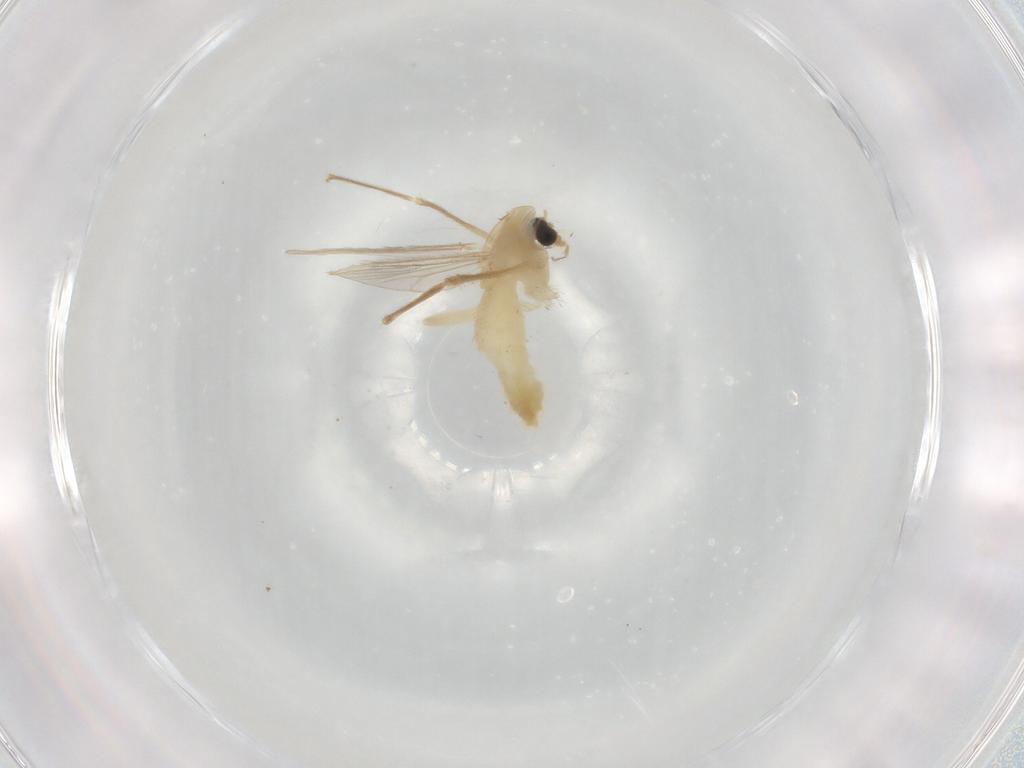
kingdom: Animalia
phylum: Arthropoda
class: Insecta
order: Diptera
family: Chironomidae
